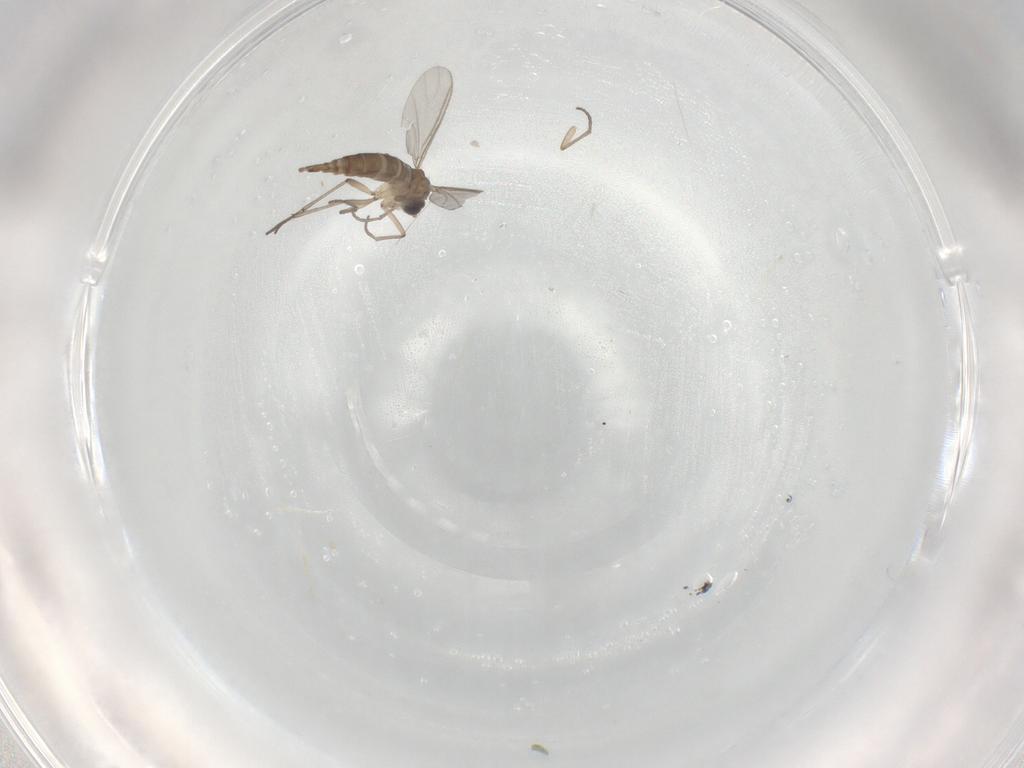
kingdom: Animalia
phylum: Arthropoda
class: Insecta
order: Diptera
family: Cecidomyiidae
